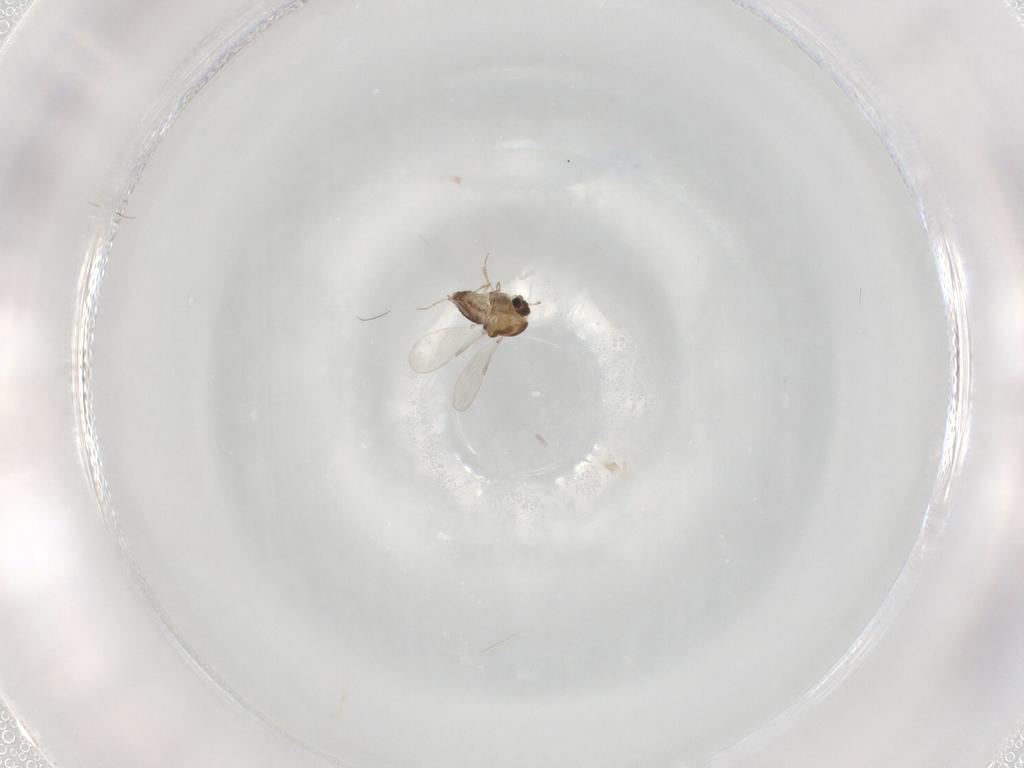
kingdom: Animalia
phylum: Arthropoda
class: Insecta
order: Diptera
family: Chironomidae
